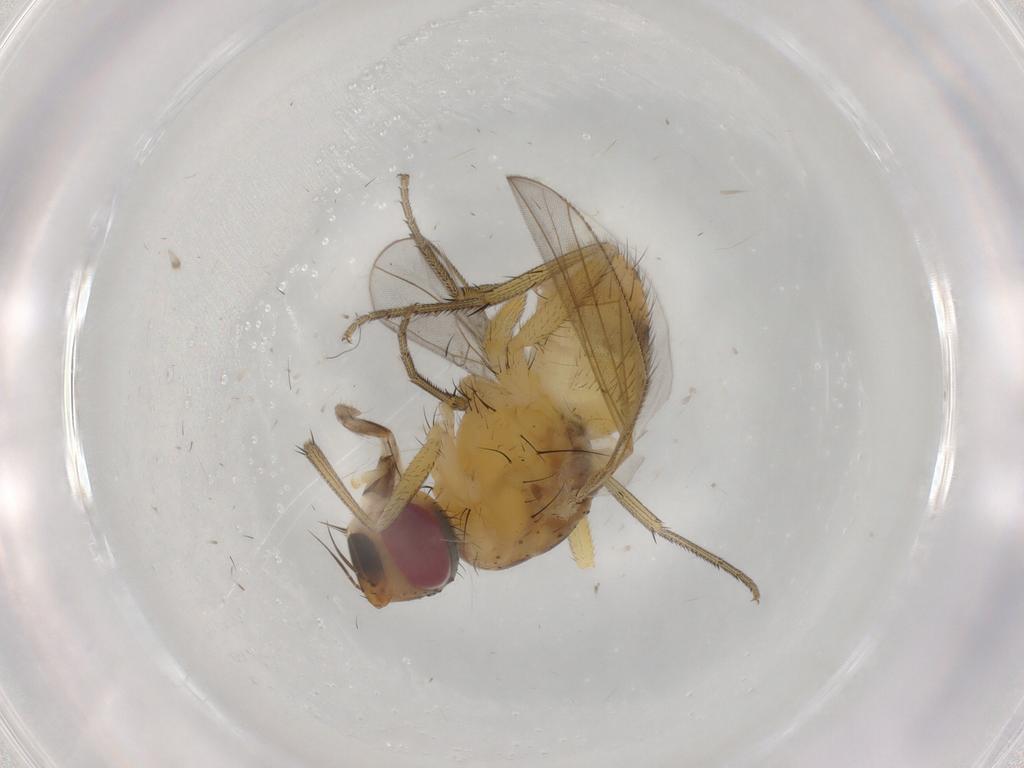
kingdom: Animalia
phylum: Arthropoda
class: Insecta
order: Diptera
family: Muscidae
